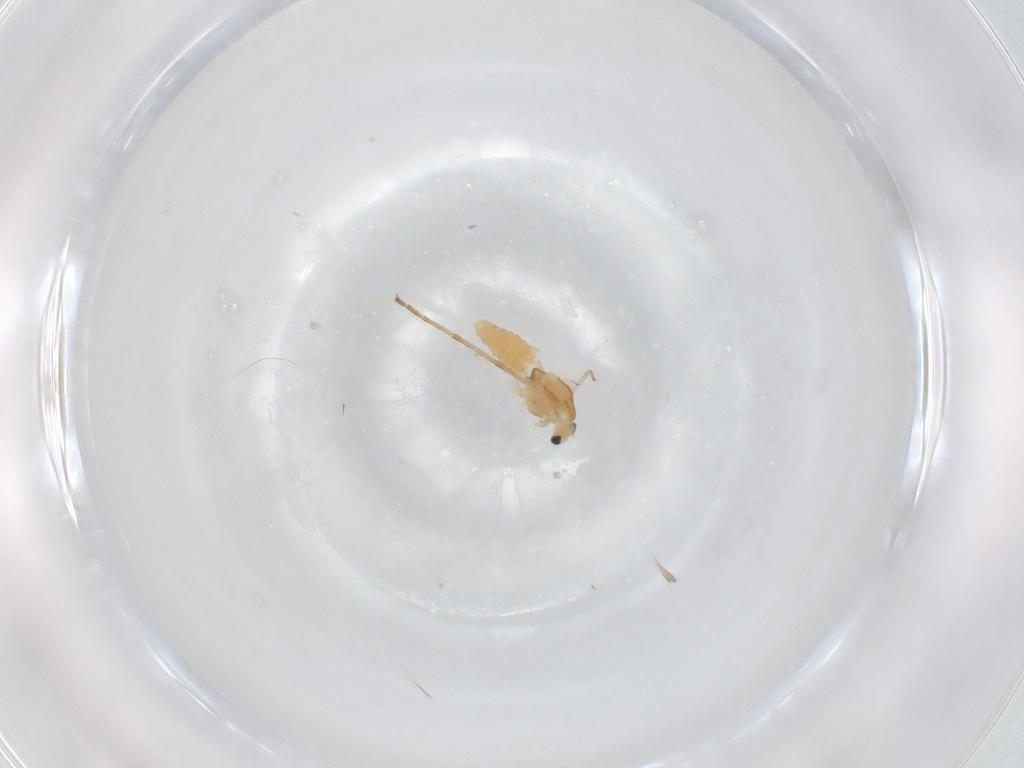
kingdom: Animalia
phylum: Arthropoda
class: Insecta
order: Diptera
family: Chironomidae
